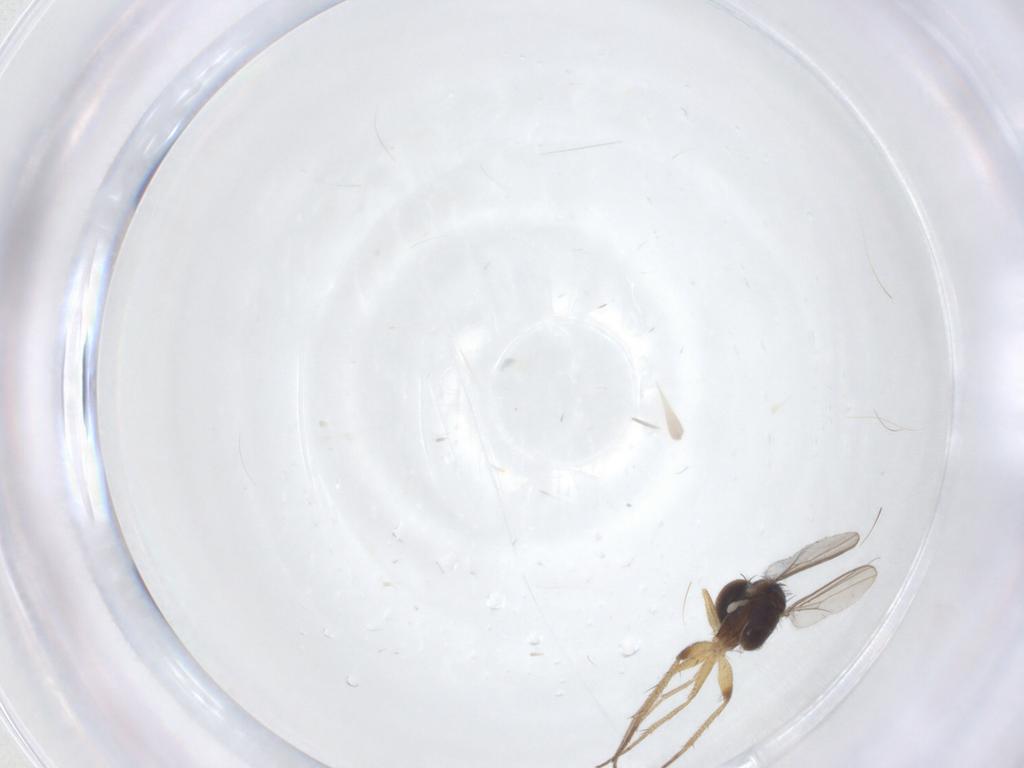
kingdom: Animalia
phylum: Arthropoda
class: Insecta
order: Diptera
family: Dolichopodidae
